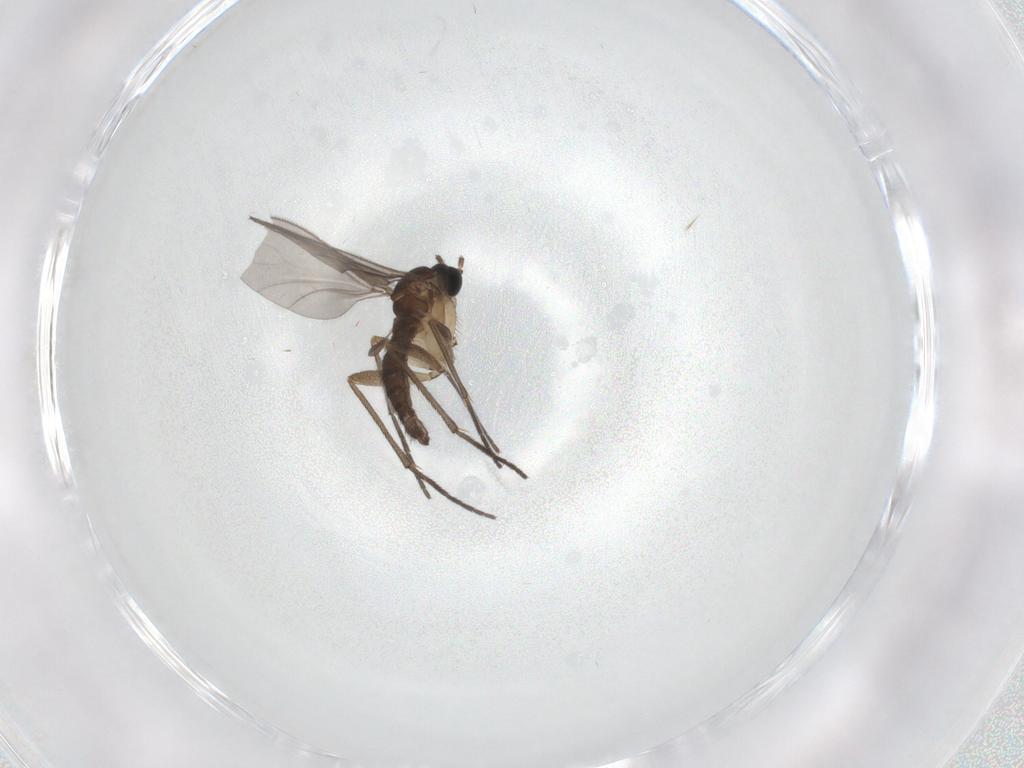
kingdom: Animalia
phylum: Arthropoda
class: Insecta
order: Diptera
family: Sciaridae
